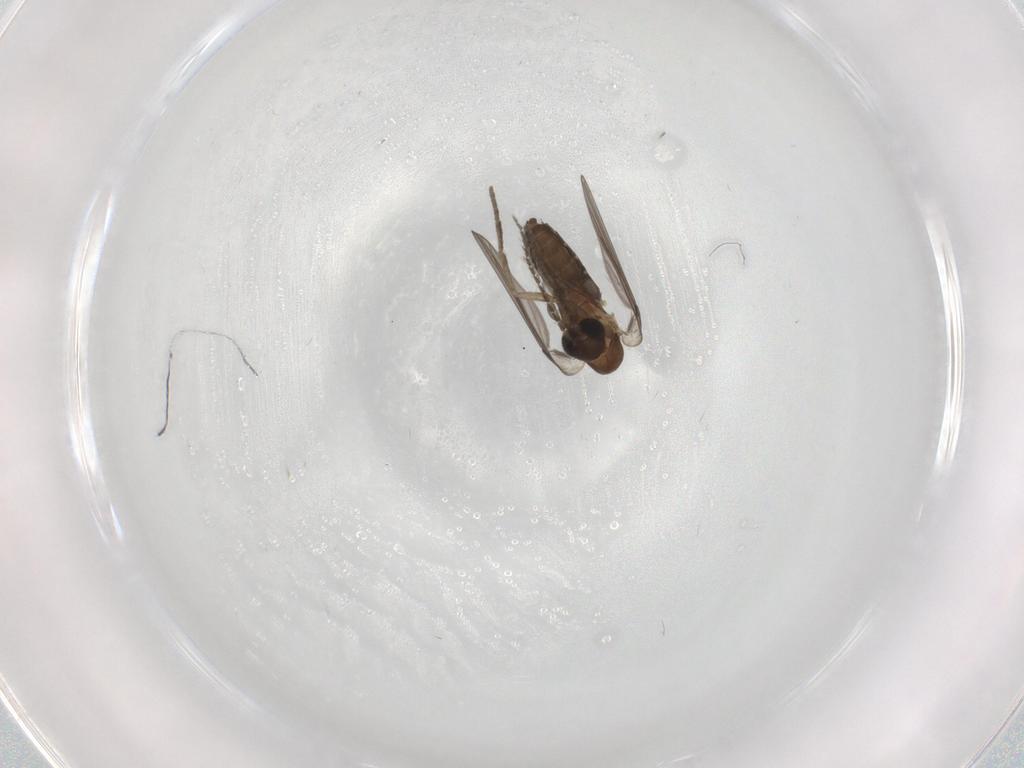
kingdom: Animalia
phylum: Arthropoda
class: Insecta
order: Diptera
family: Psychodidae
